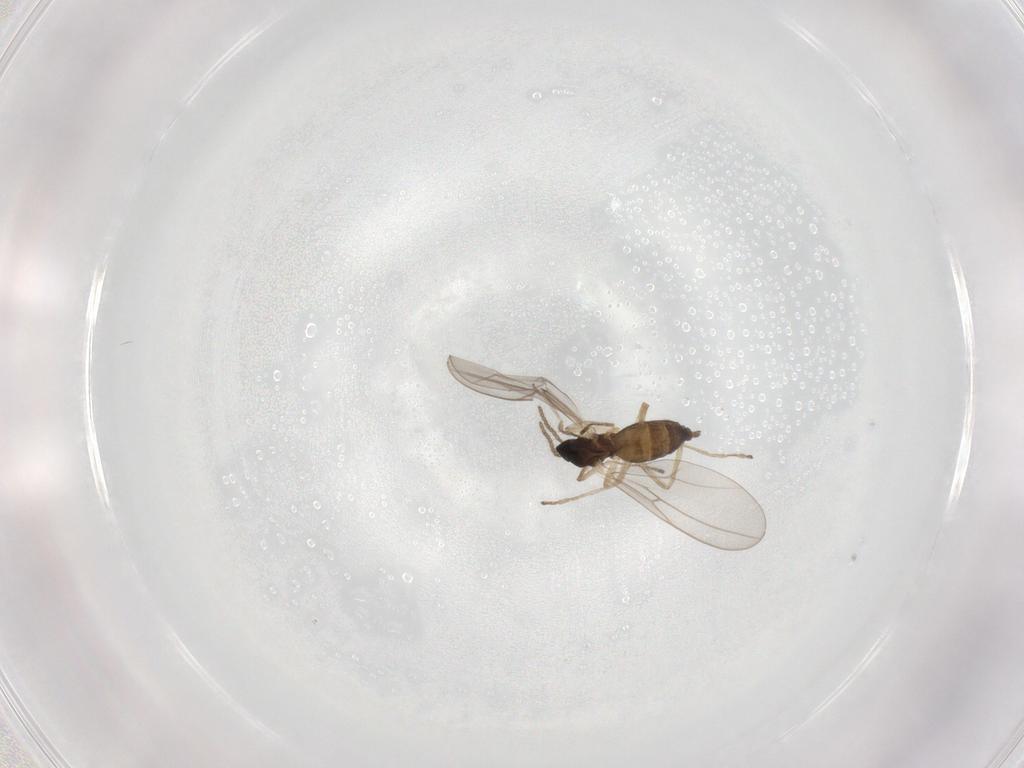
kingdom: Animalia
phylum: Arthropoda
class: Insecta
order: Diptera
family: Cecidomyiidae
